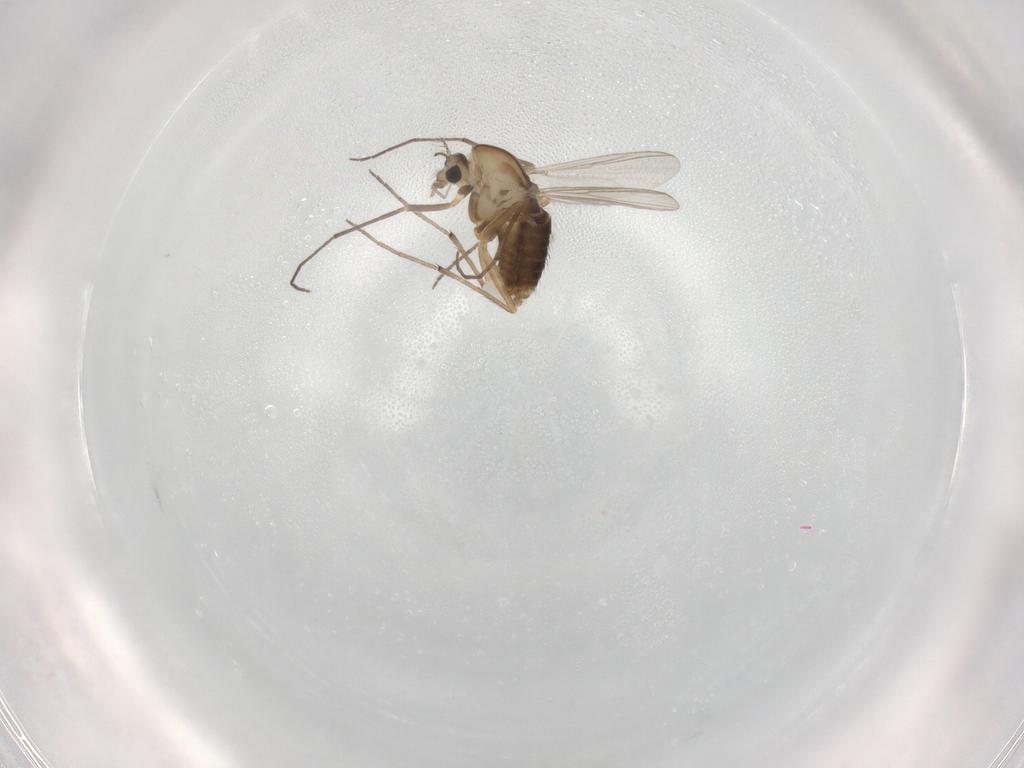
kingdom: Animalia
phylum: Arthropoda
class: Insecta
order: Diptera
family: Chironomidae
